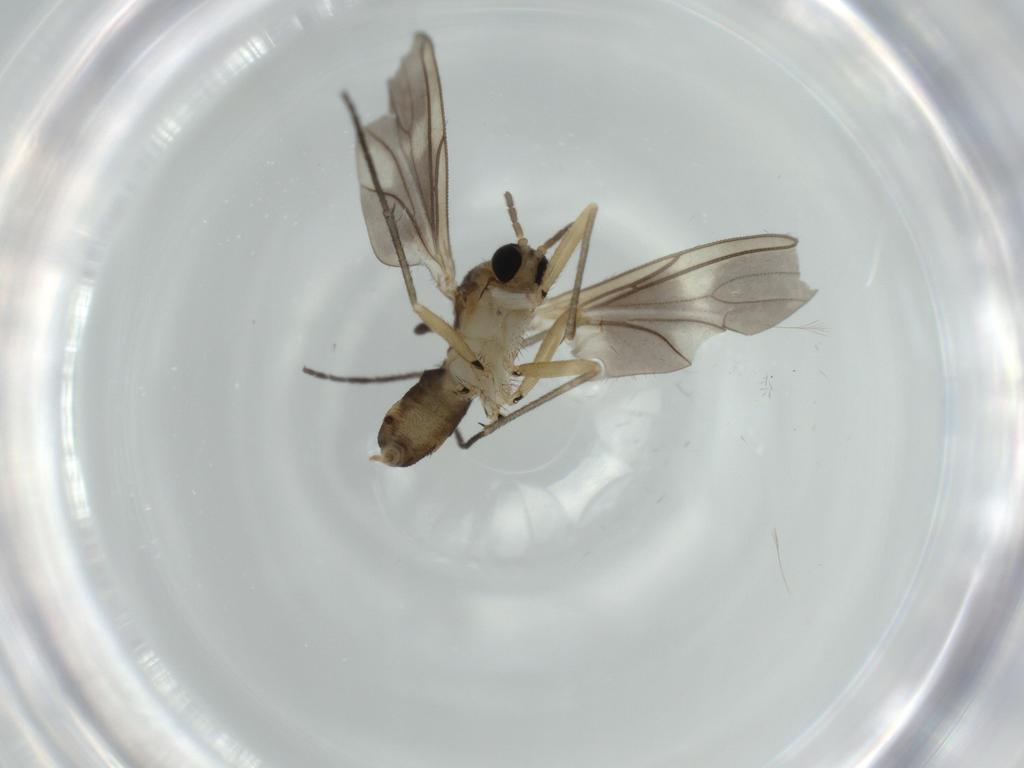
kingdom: Animalia
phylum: Arthropoda
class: Insecta
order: Diptera
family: Sciaridae
